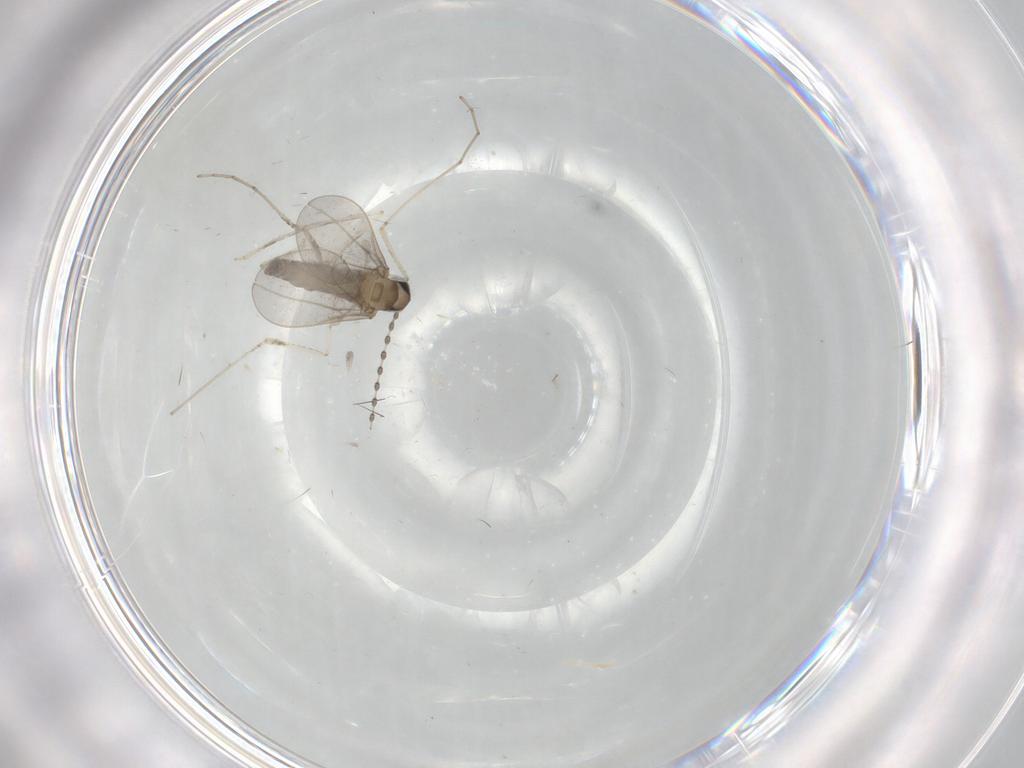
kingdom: Animalia
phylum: Arthropoda
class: Insecta
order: Diptera
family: Cecidomyiidae
